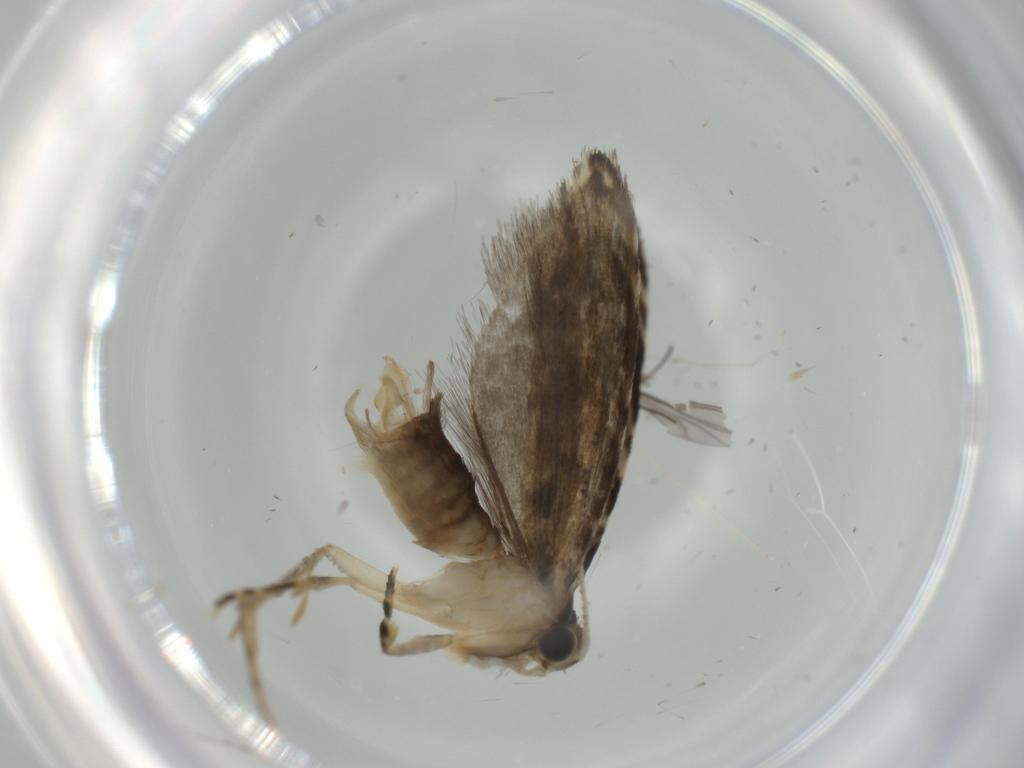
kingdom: Animalia
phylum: Arthropoda
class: Insecta
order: Lepidoptera
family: Tineidae
